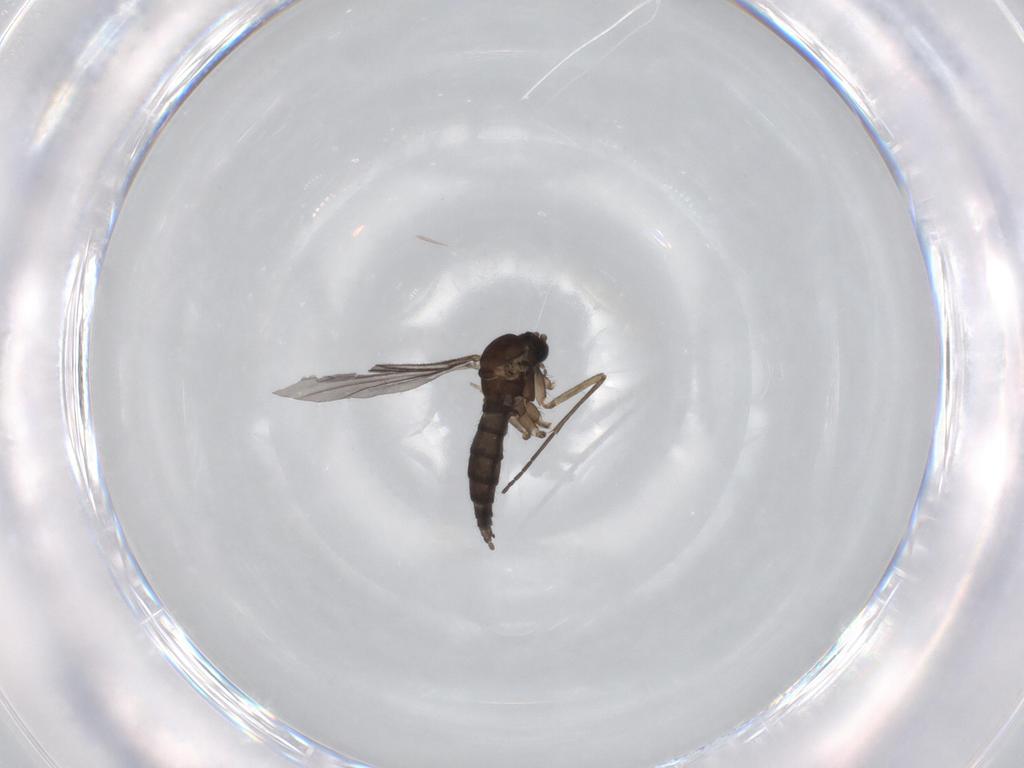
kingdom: Animalia
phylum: Arthropoda
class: Insecta
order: Diptera
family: Sciaridae
